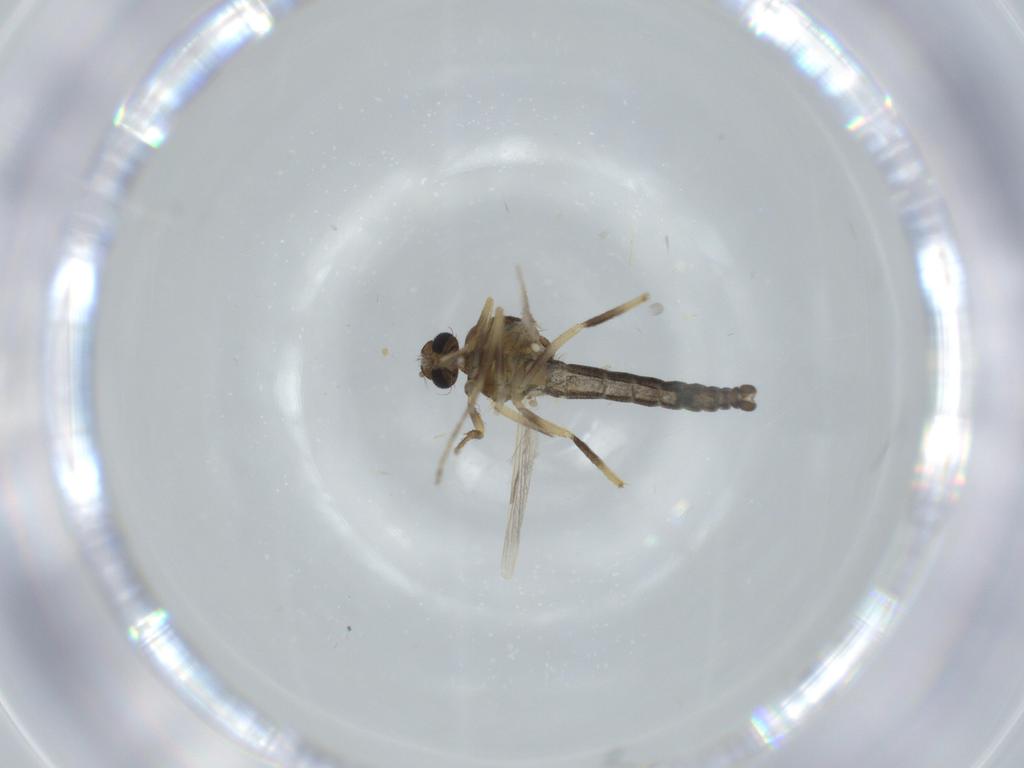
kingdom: Animalia
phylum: Arthropoda
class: Insecta
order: Diptera
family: Ceratopogonidae
